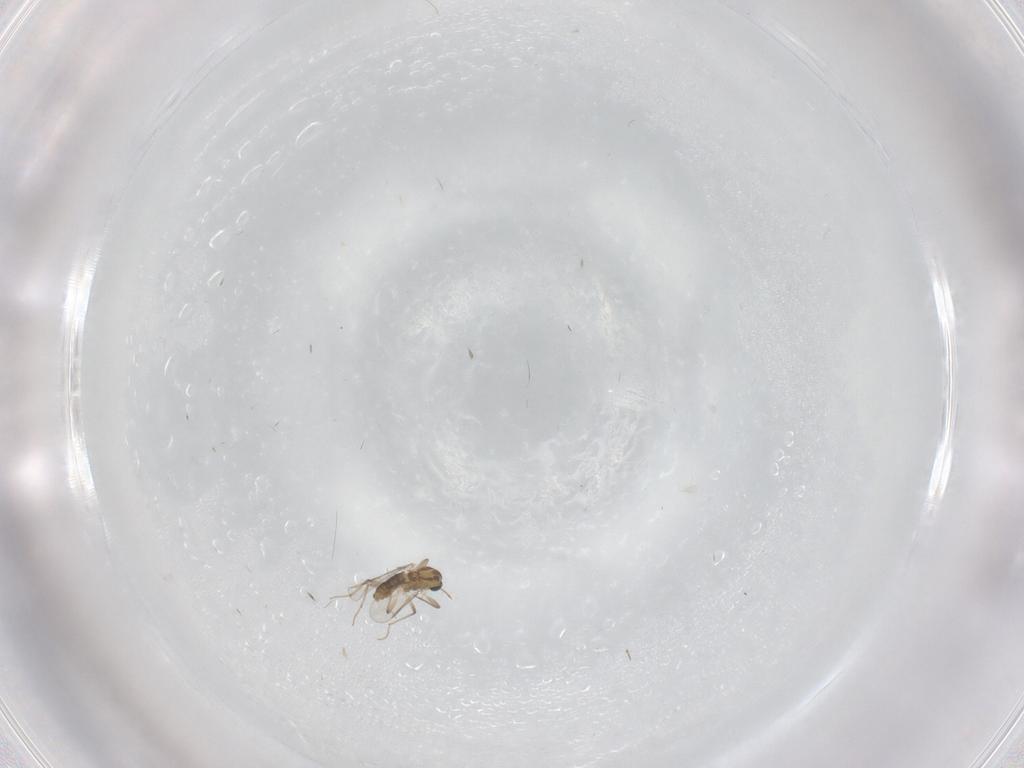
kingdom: Animalia
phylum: Arthropoda
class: Insecta
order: Diptera
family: Chironomidae
